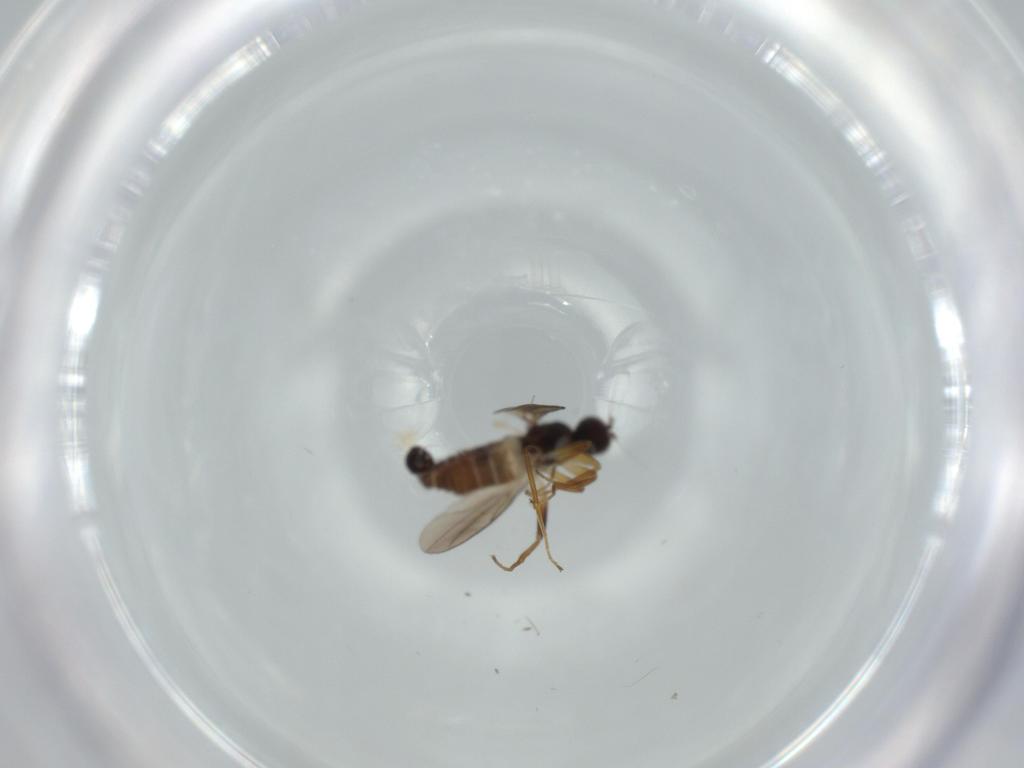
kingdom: Animalia
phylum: Arthropoda
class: Insecta
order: Diptera
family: Hybotidae
